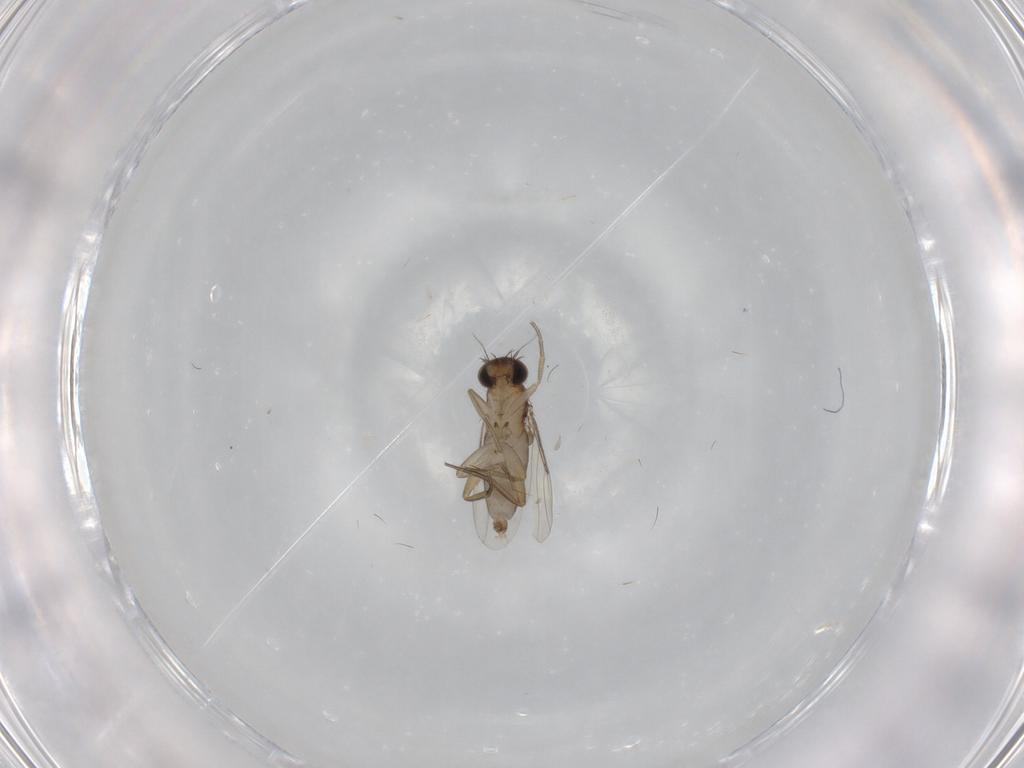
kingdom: Animalia
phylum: Arthropoda
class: Insecta
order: Diptera
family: Phoridae
